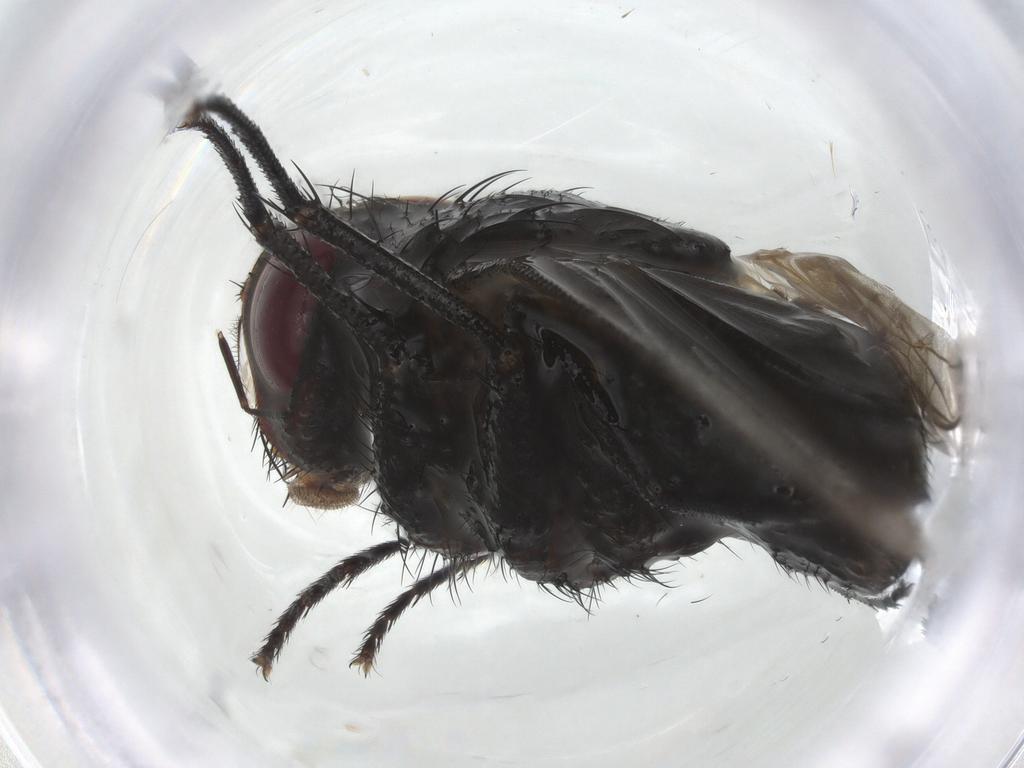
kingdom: Animalia
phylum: Arthropoda
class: Insecta
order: Diptera
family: Calliphoridae
